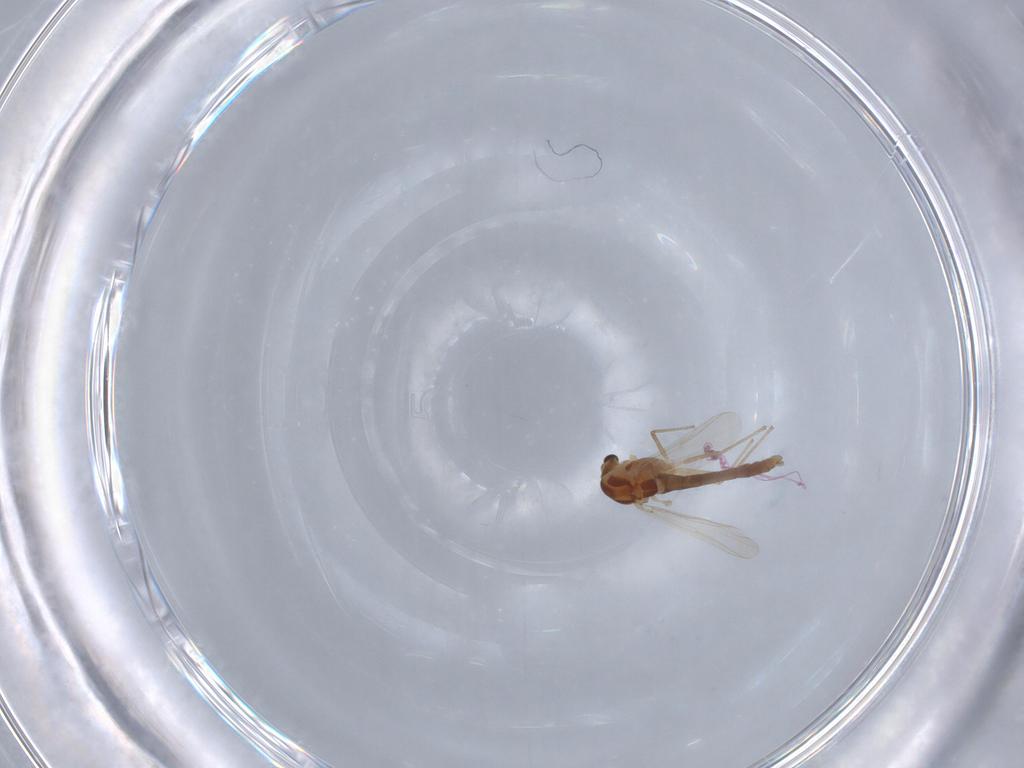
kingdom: Animalia
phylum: Arthropoda
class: Insecta
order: Diptera
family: Chironomidae
